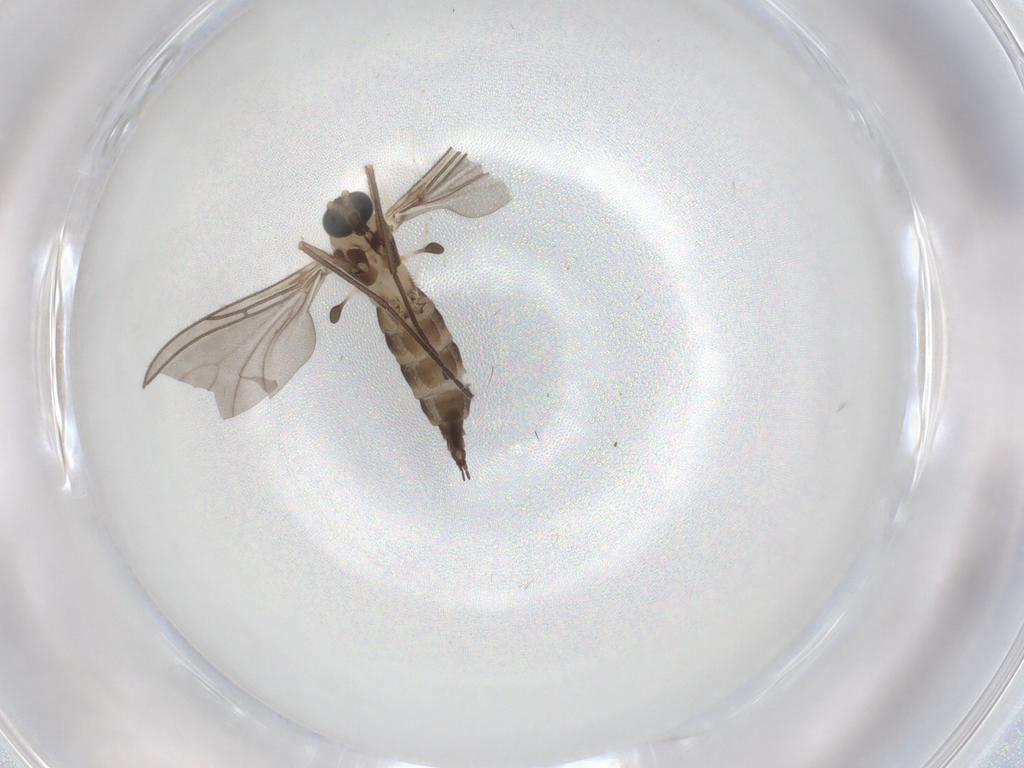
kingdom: Animalia
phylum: Arthropoda
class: Insecta
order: Diptera
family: Sciaridae
